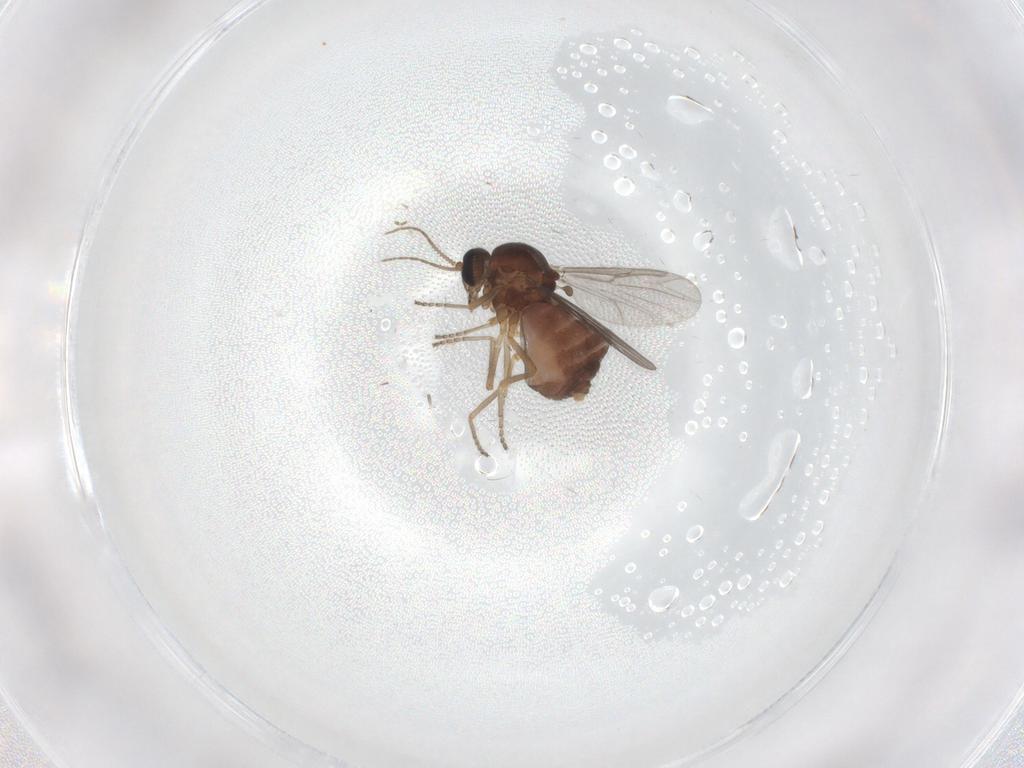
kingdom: Animalia
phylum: Arthropoda
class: Insecta
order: Diptera
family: Ceratopogonidae
